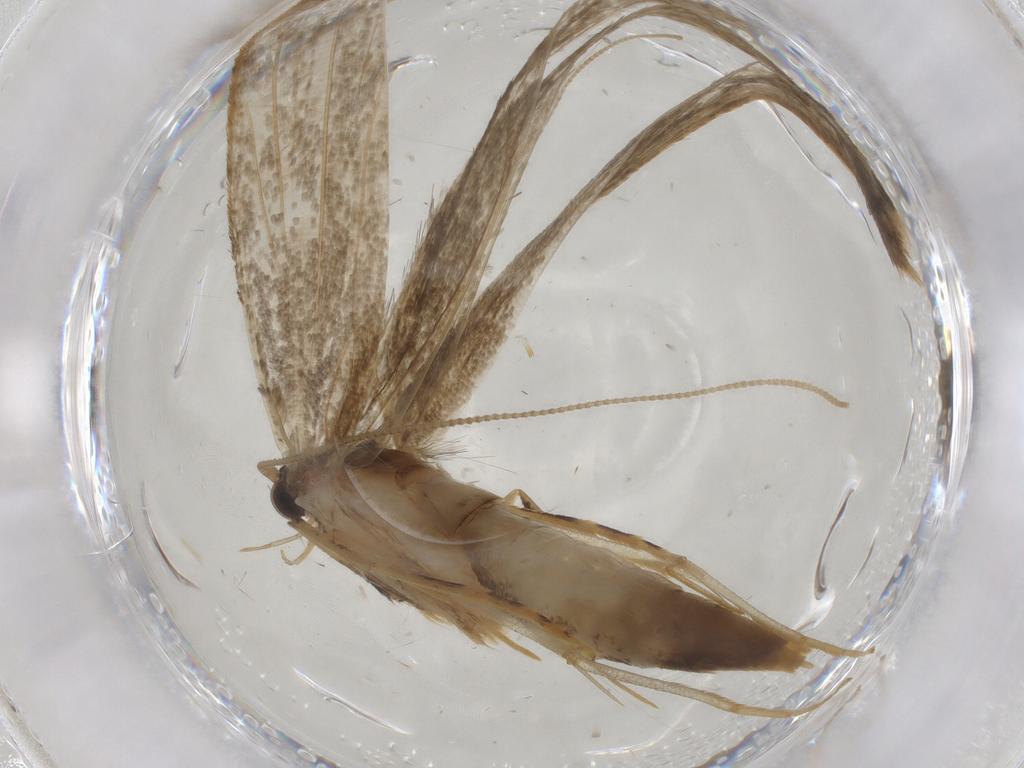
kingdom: Animalia
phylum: Arthropoda
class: Insecta
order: Lepidoptera
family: Tineidae
